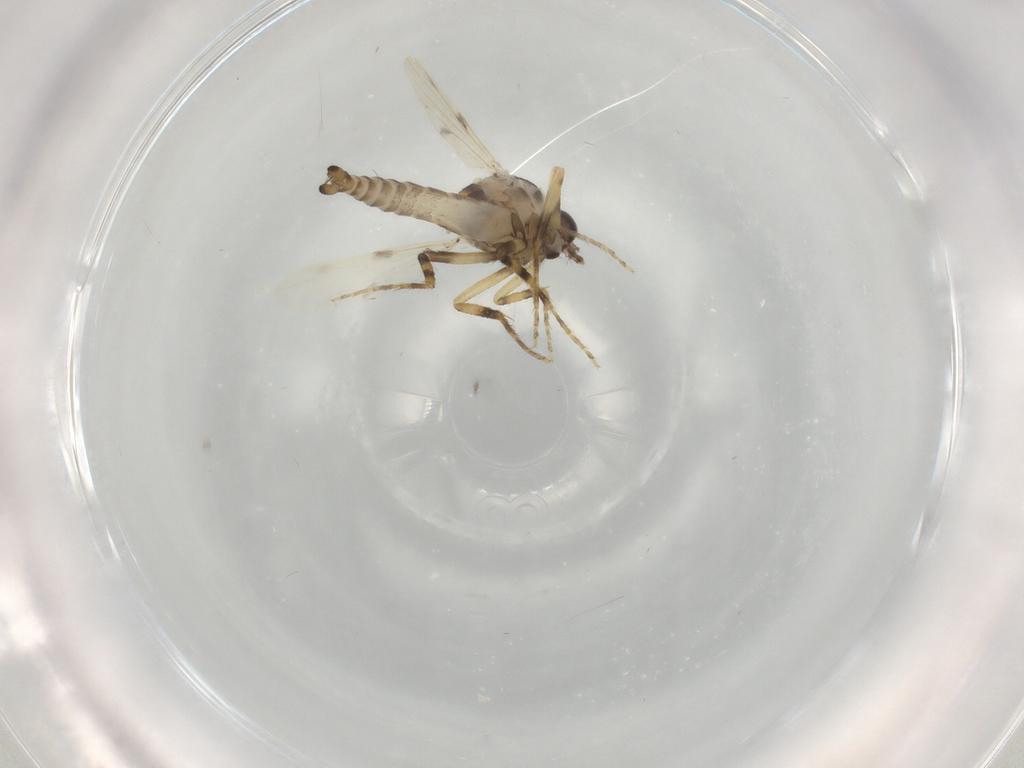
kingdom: Animalia
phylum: Arthropoda
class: Insecta
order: Diptera
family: Ceratopogonidae
